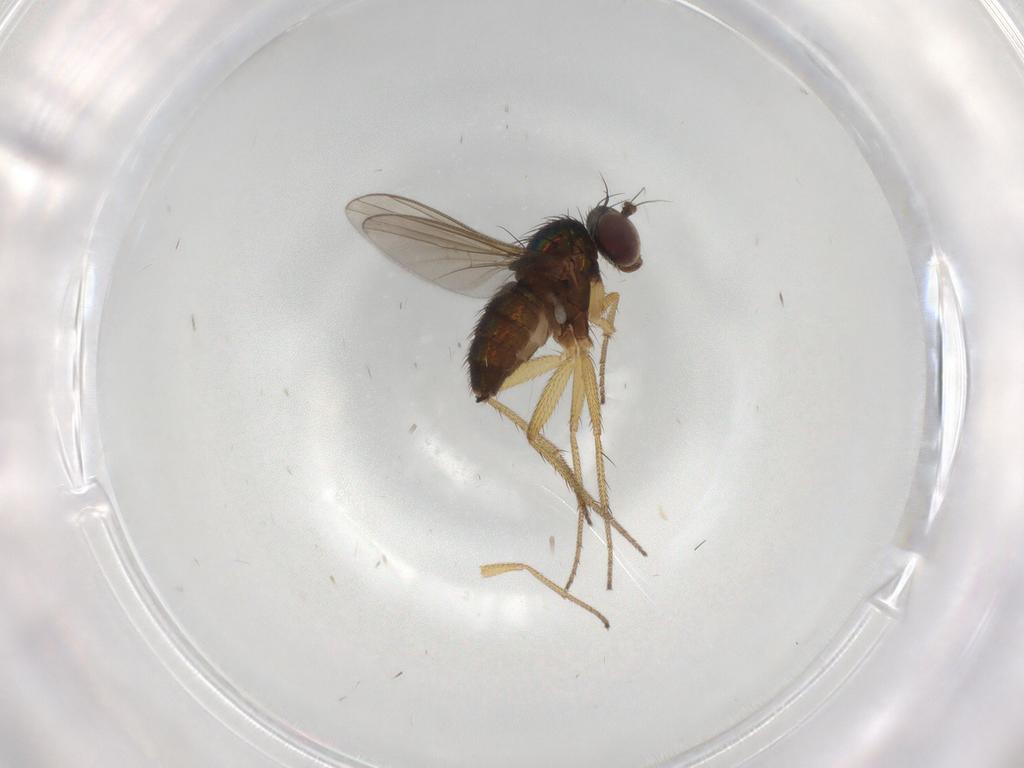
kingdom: Animalia
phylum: Arthropoda
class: Insecta
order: Diptera
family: Dolichopodidae
